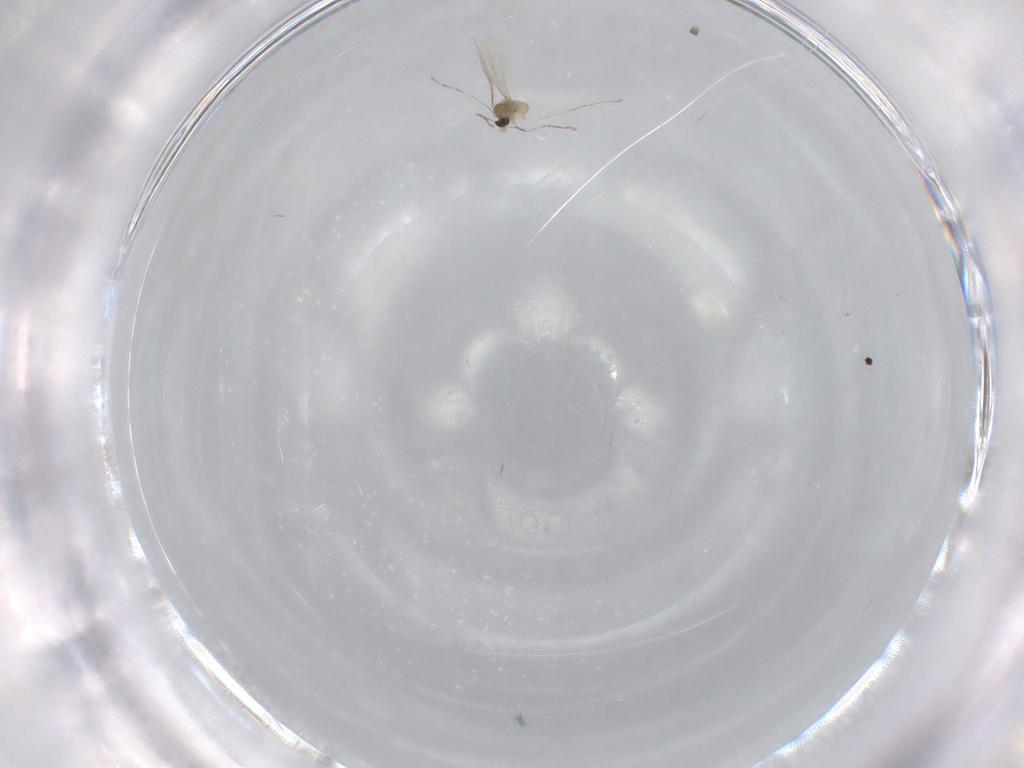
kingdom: Animalia
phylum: Arthropoda
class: Insecta
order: Diptera
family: Cecidomyiidae
